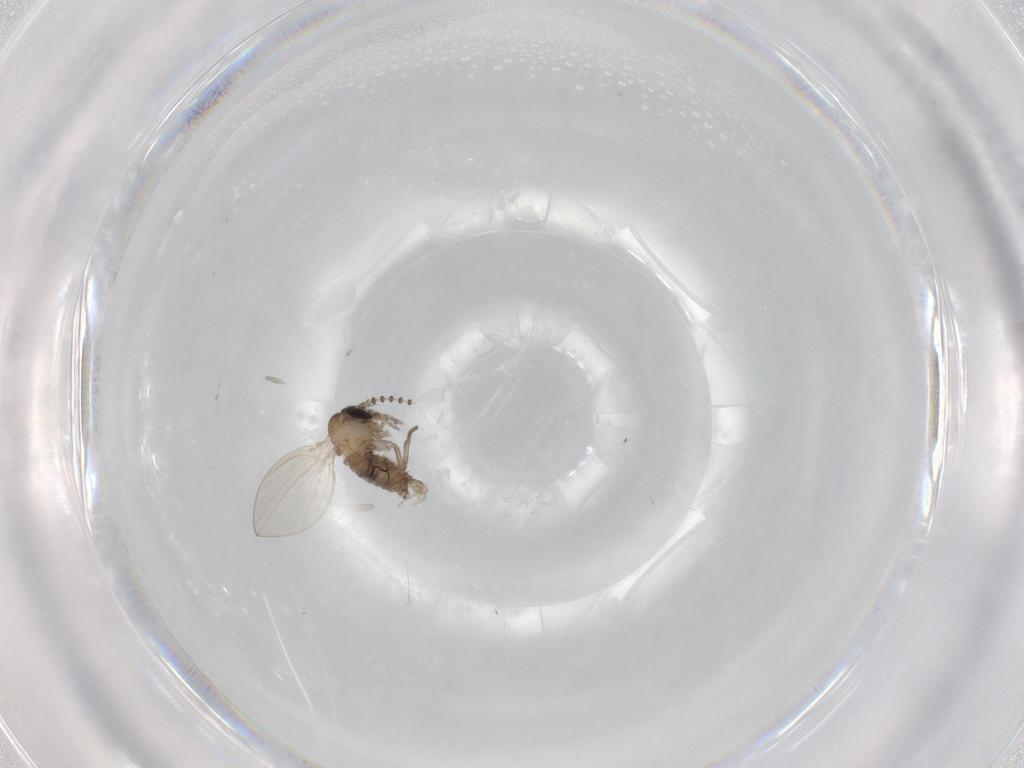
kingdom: Animalia
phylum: Arthropoda
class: Insecta
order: Diptera
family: Psychodidae
